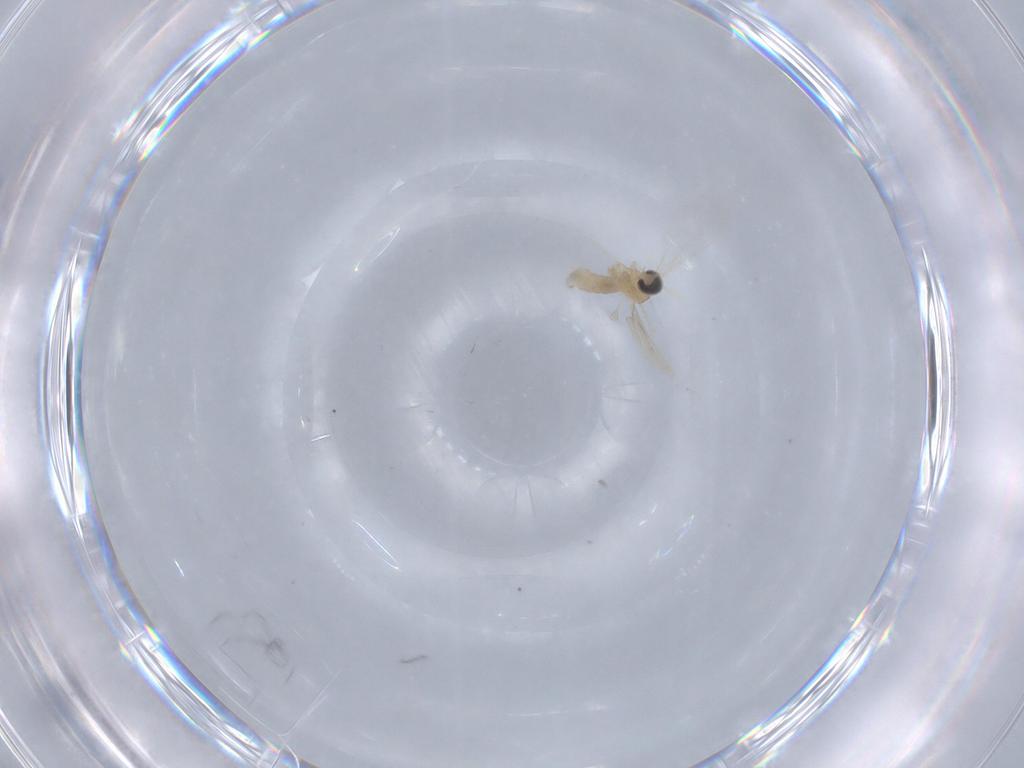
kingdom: Animalia
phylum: Arthropoda
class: Insecta
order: Diptera
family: Cecidomyiidae
